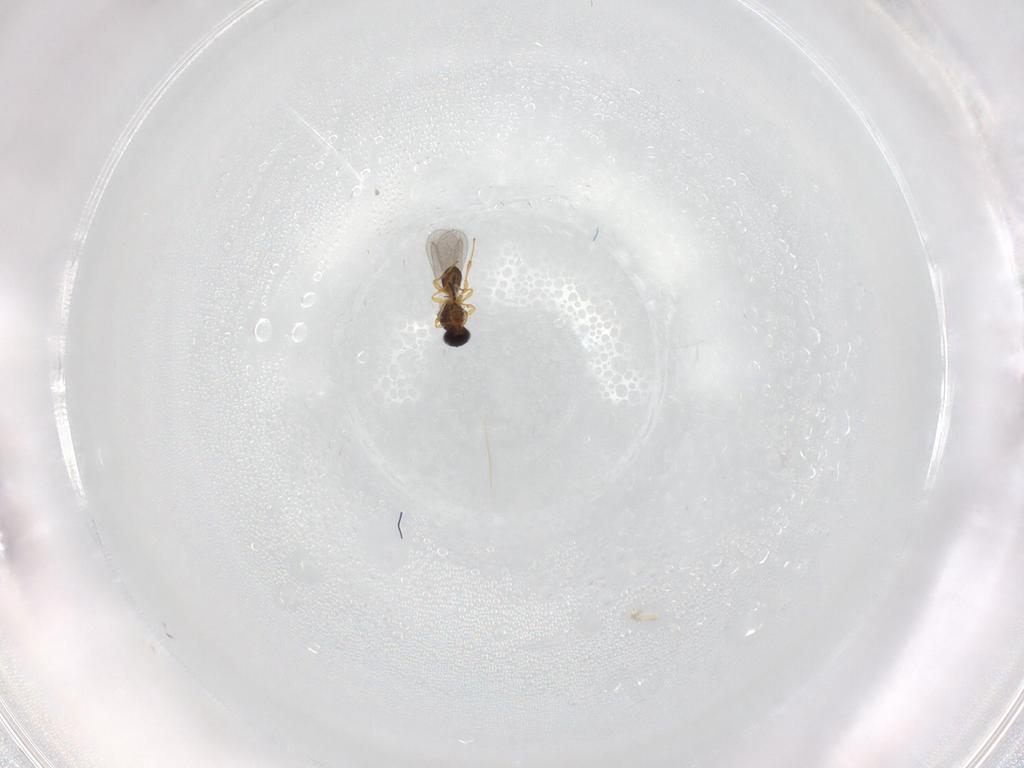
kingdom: Animalia
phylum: Arthropoda
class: Insecta
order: Hymenoptera
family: Platygastridae
